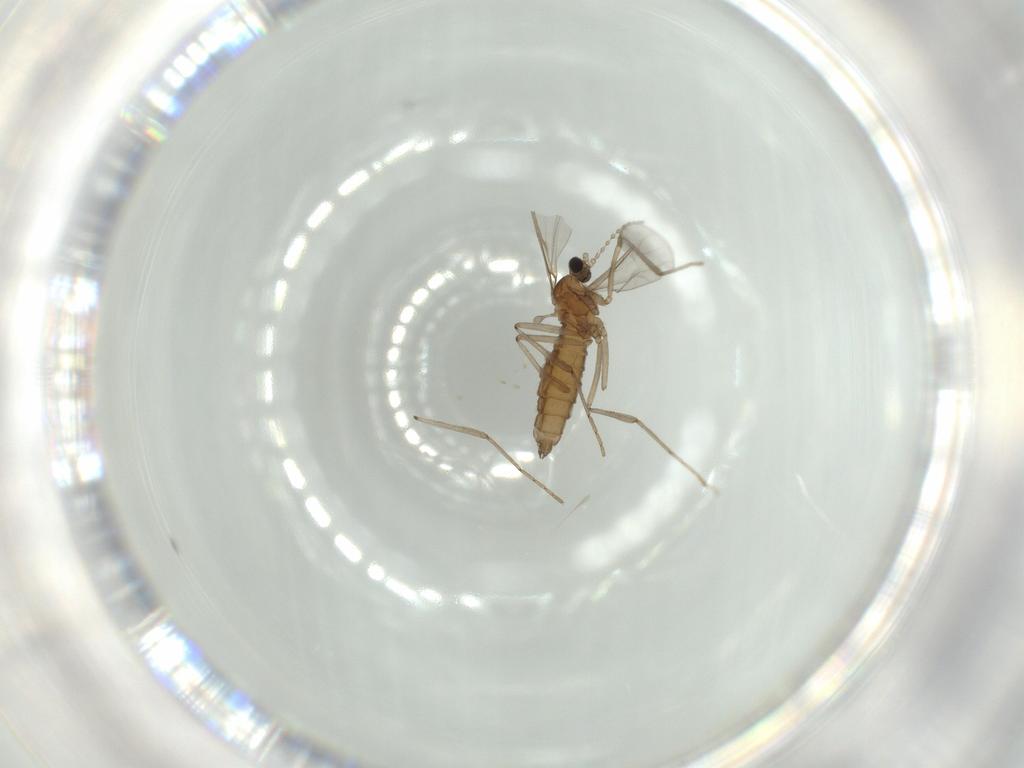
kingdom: Animalia
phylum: Arthropoda
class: Insecta
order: Diptera
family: Cecidomyiidae
